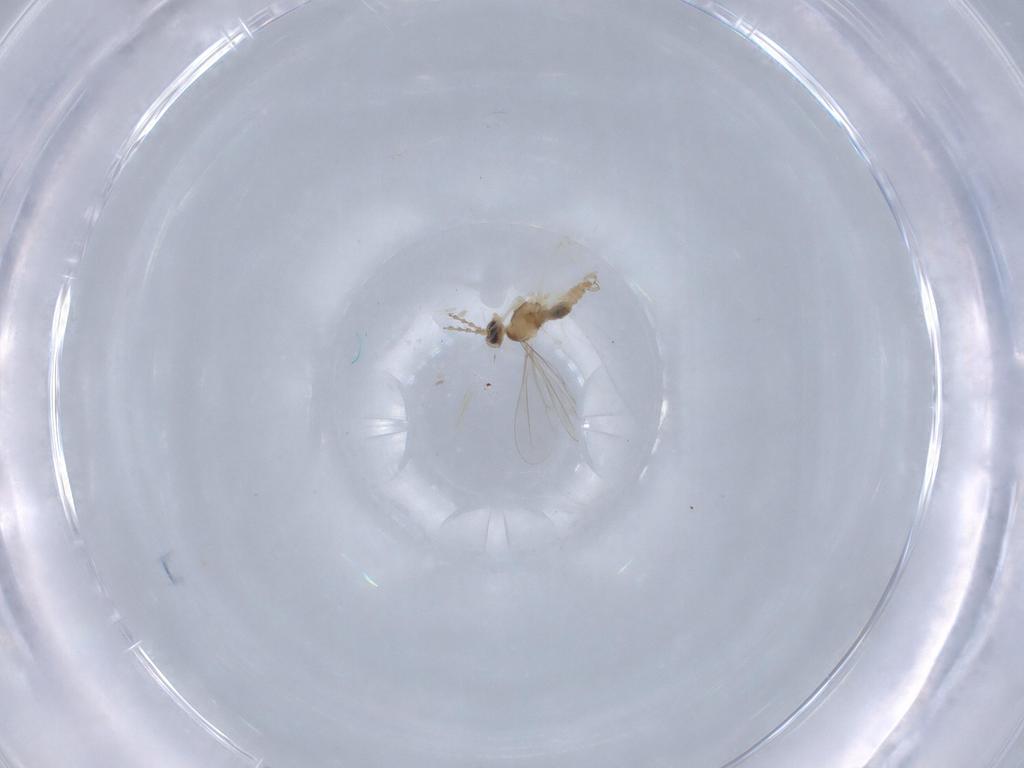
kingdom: Animalia
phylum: Arthropoda
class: Insecta
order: Diptera
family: Cecidomyiidae
